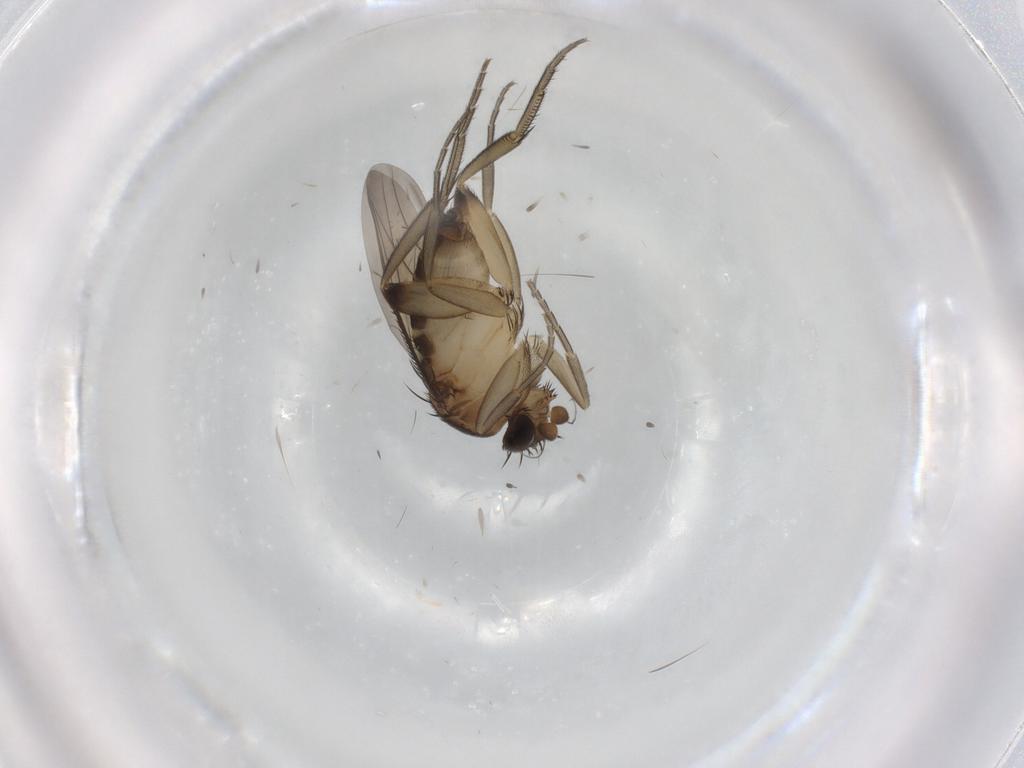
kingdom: Animalia
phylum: Arthropoda
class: Insecta
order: Diptera
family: Phoridae
